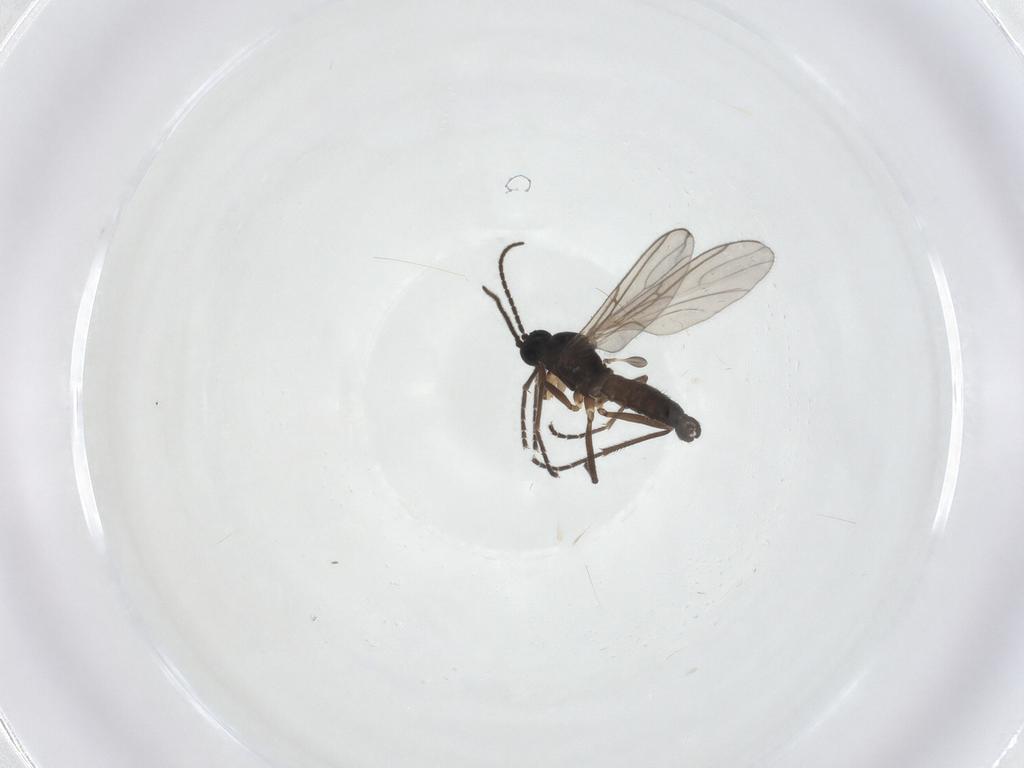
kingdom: Animalia
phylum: Arthropoda
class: Insecta
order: Diptera
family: Sciaridae
